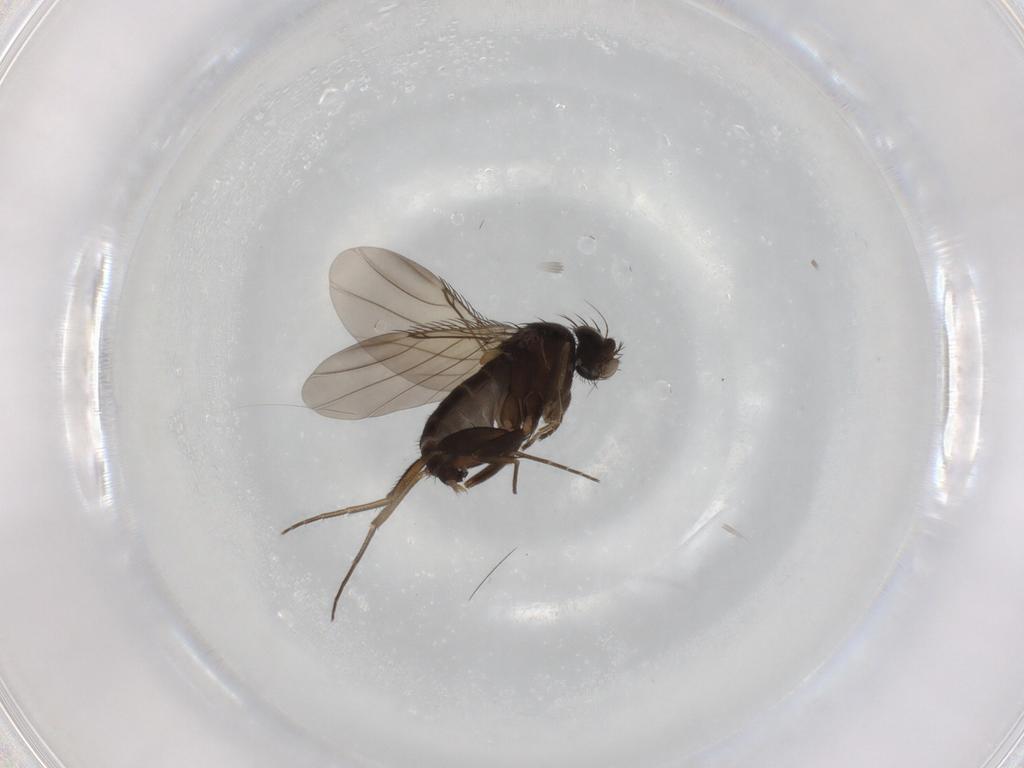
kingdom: Animalia
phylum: Arthropoda
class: Insecta
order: Diptera
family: Phoridae
